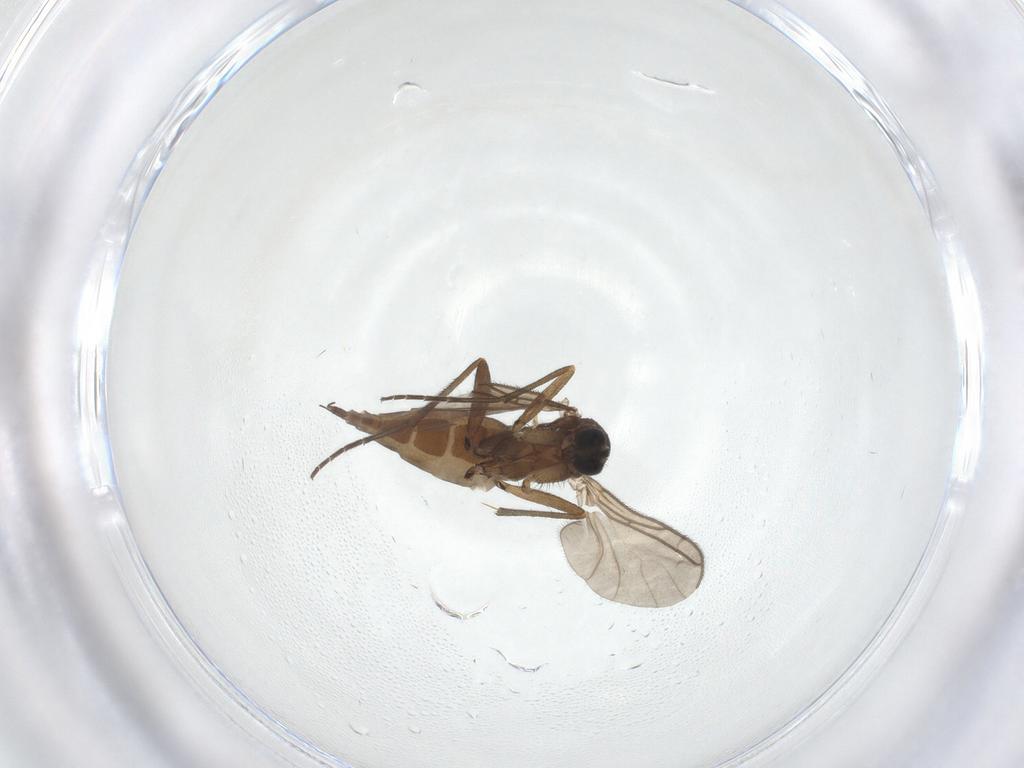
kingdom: Animalia
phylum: Arthropoda
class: Insecta
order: Diptera
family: Sciaridae
